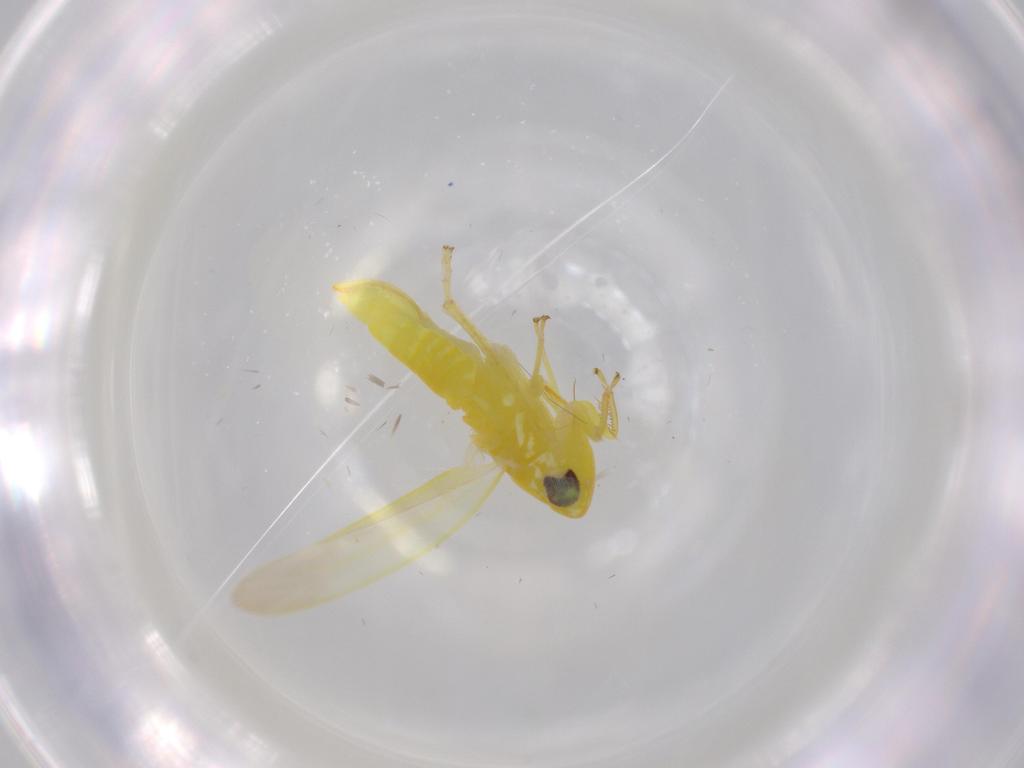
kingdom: Animalia
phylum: Arthropoda
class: Insecta
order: Hemiptera
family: Cicadellidae
